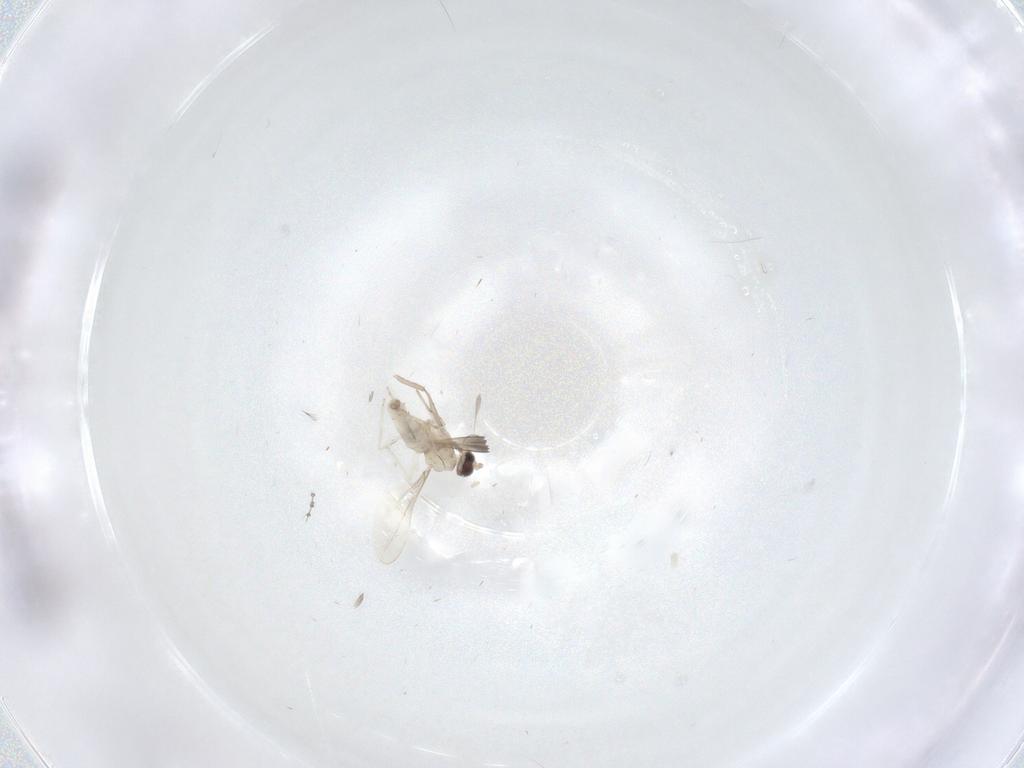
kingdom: Animalia
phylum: Arthropoda
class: Insecta
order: Diptera
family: Cecidomyiidae
